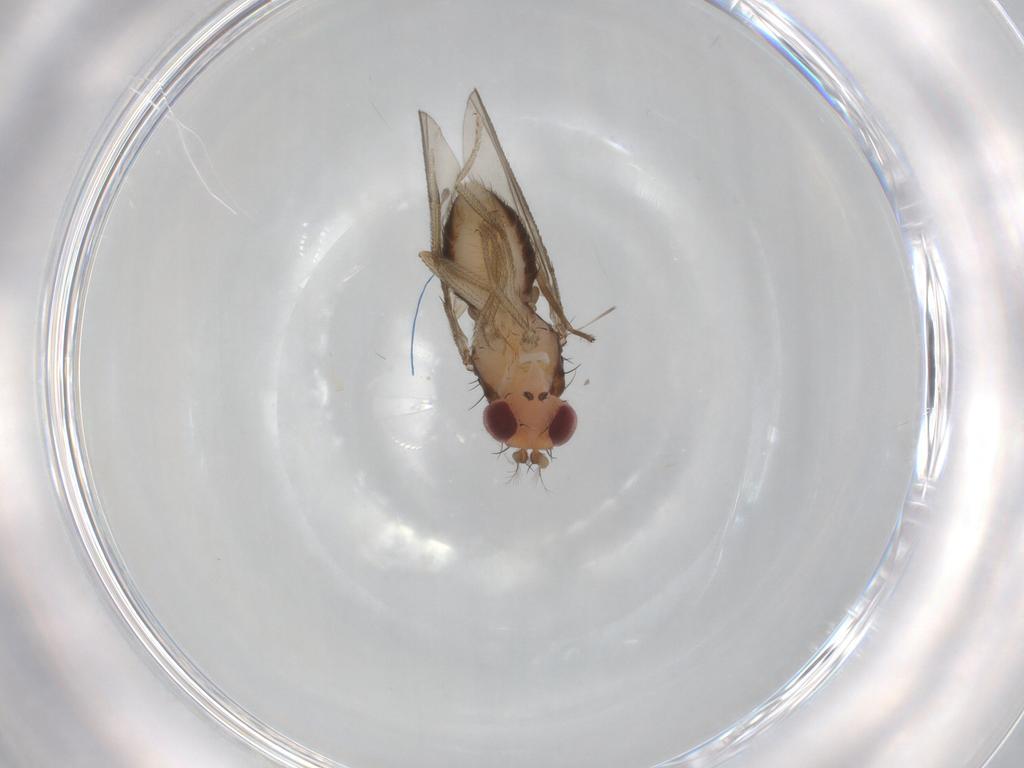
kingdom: Animalia
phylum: Arthropoda
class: Insecta
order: Diptera
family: Drosophilidae
